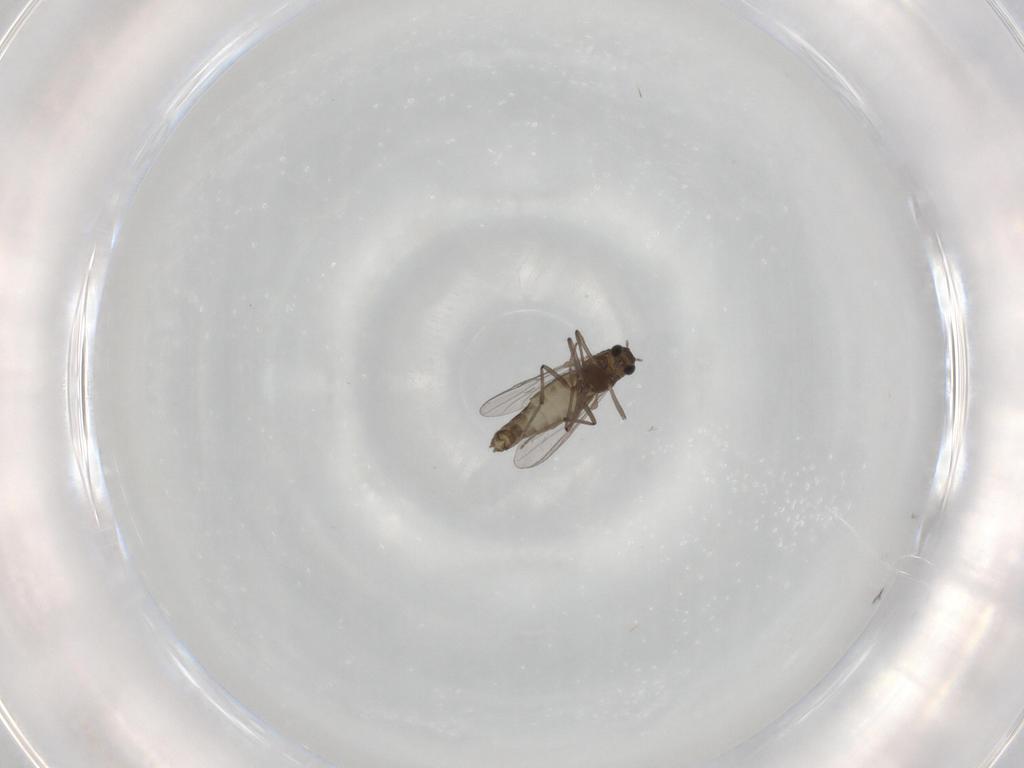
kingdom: Animalia
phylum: Arthropoda
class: Insecta
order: Diptera
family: Chironomidae
